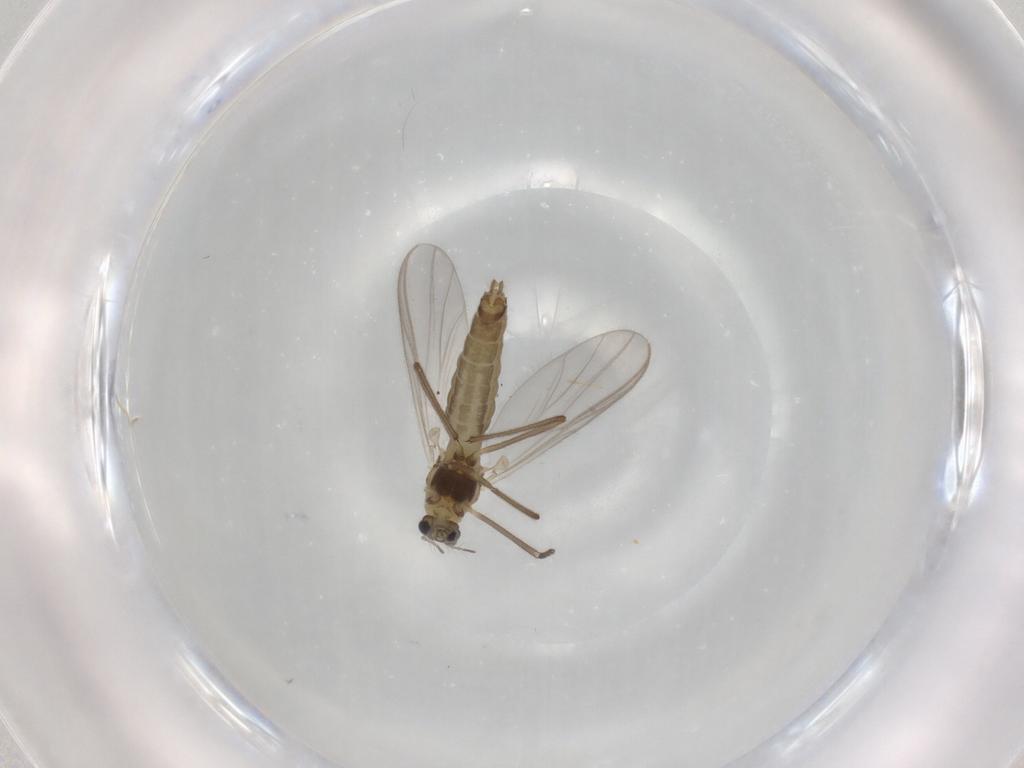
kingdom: Animalia
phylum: Arthropoda
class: Insecta
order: Diptera
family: Chironomidae
